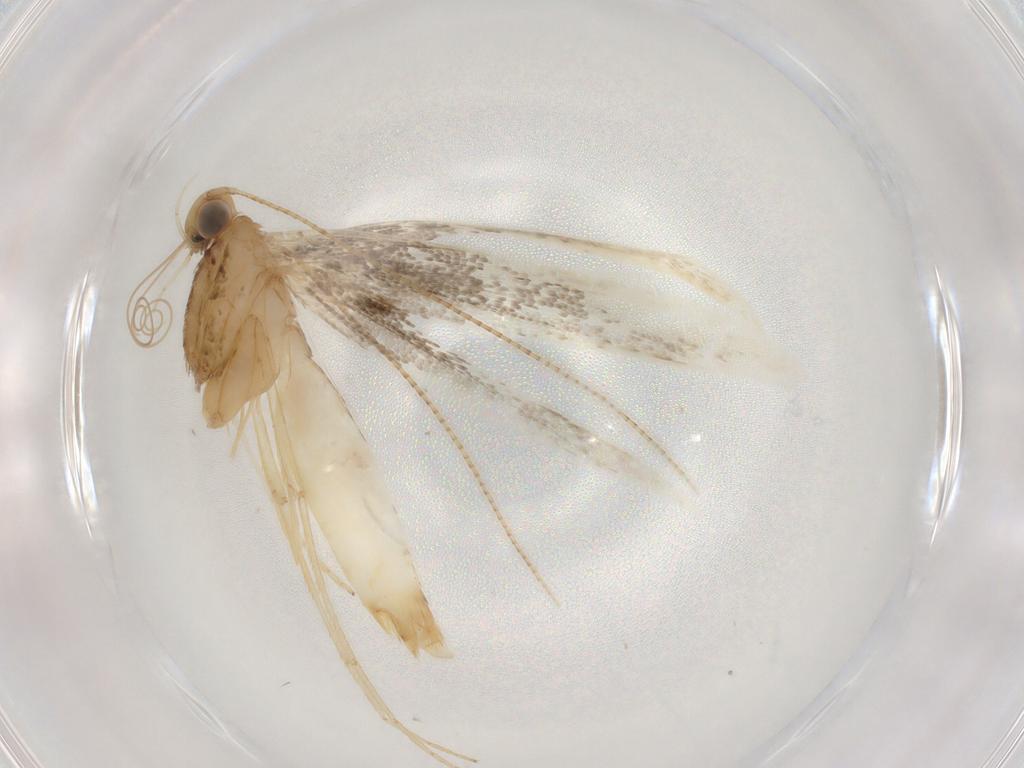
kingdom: Animalia
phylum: Arthropoda
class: Insecta
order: Lepidoptera
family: Gracillariidae
